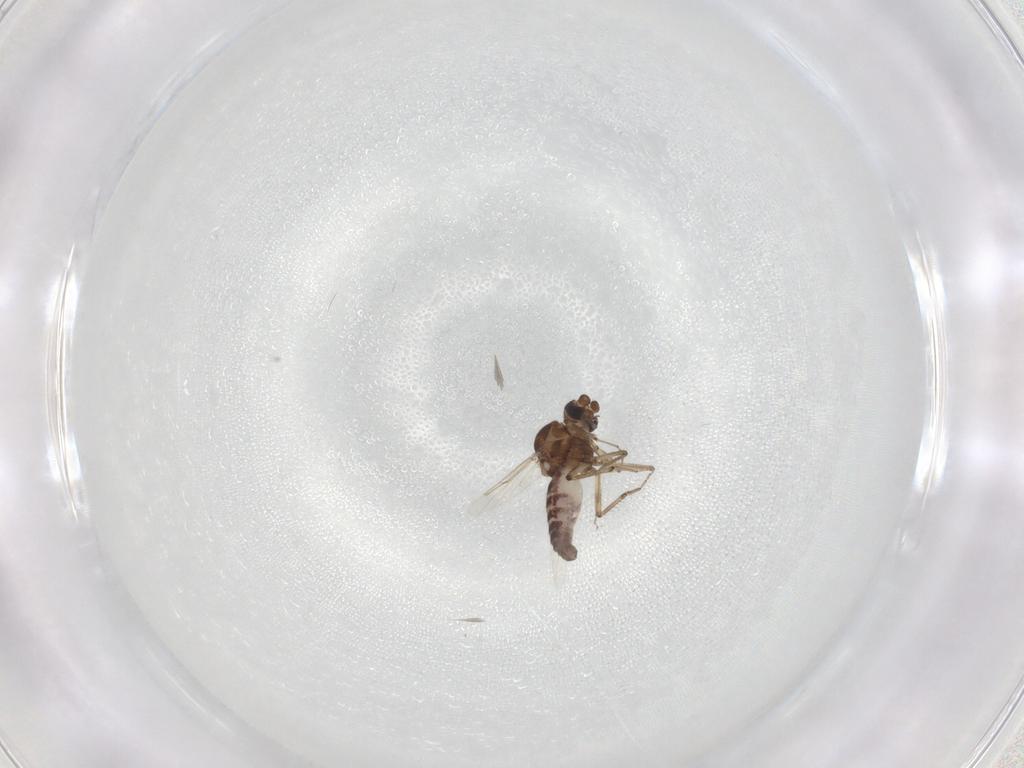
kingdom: Animalia
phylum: Arthropoda
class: Insecta
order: Diptera
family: Ceratopogonidae
